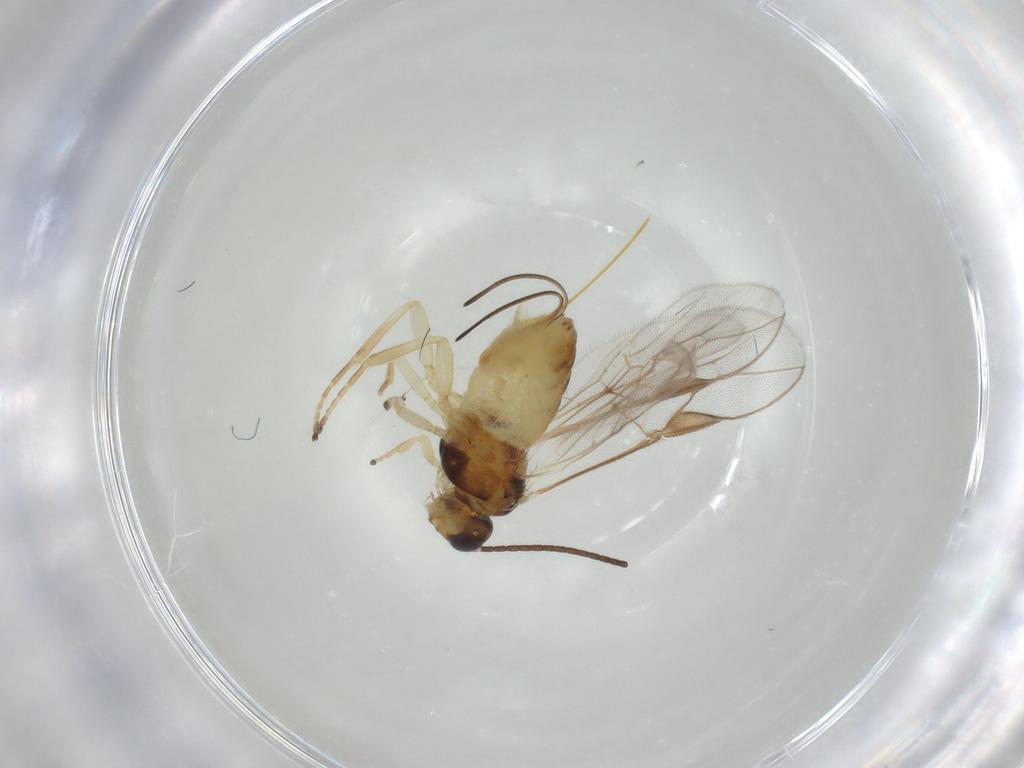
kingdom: Animalia
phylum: Arthropoda
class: Insecta
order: Hymenoptera
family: Braconidae
